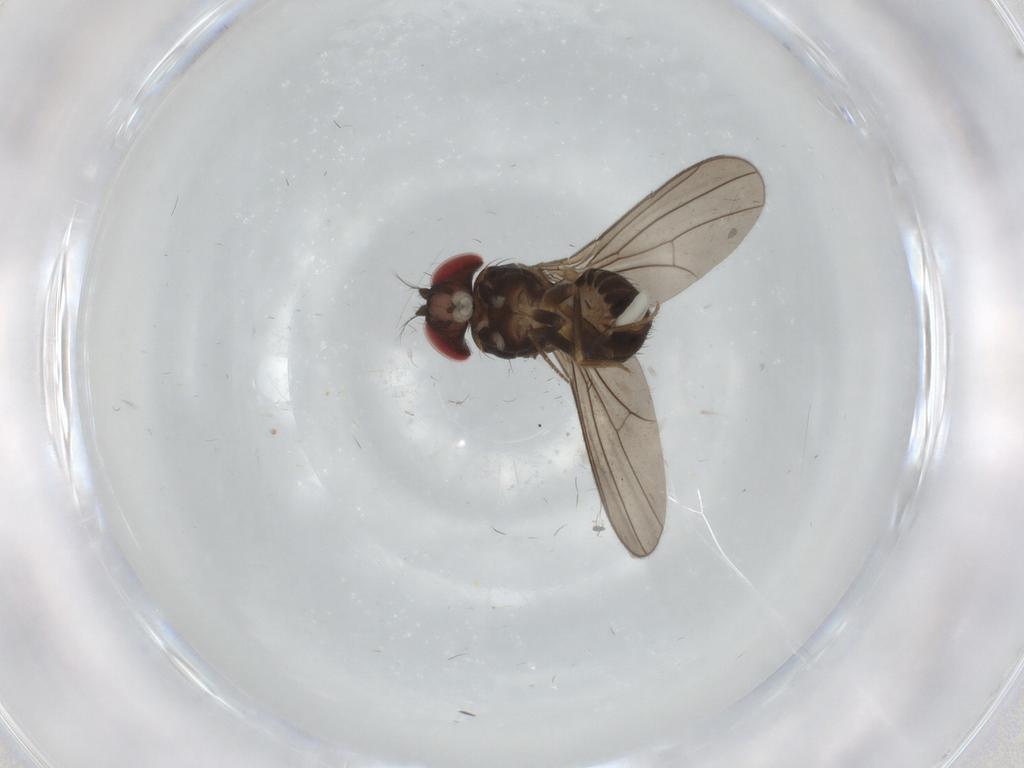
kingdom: Animalia
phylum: Arthropoda
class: Insecta
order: Diptera
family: Drosophilidae
